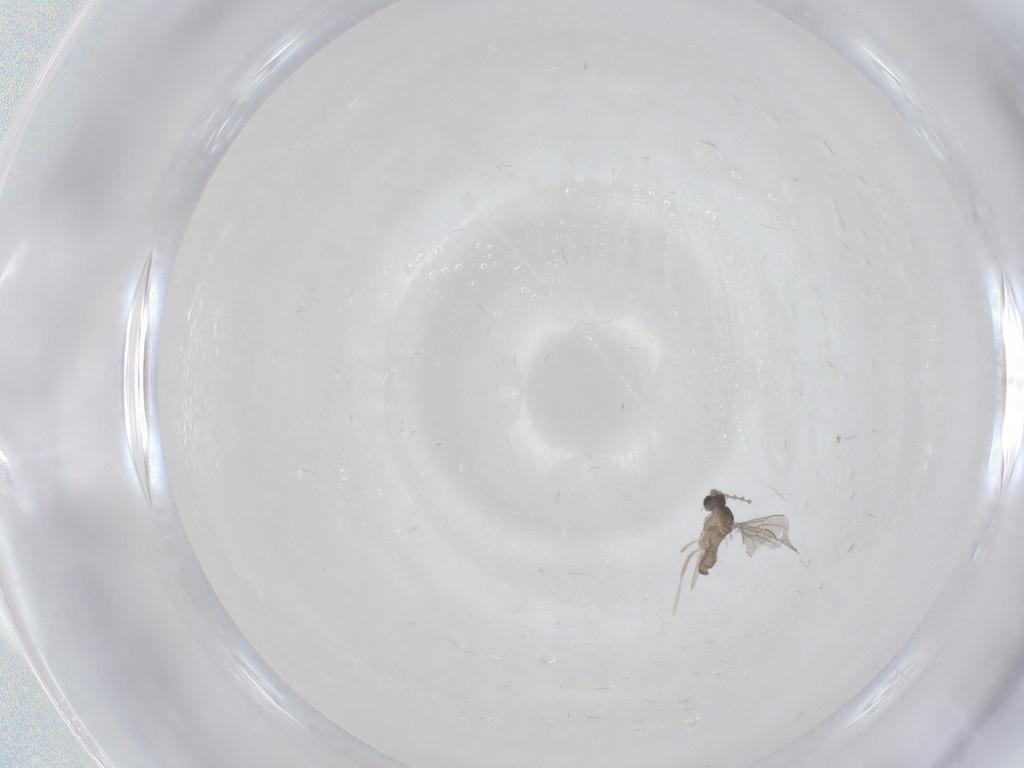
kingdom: Animalia
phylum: Arthropoda
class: Insecta
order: Diptera
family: Cecidomyiidae
